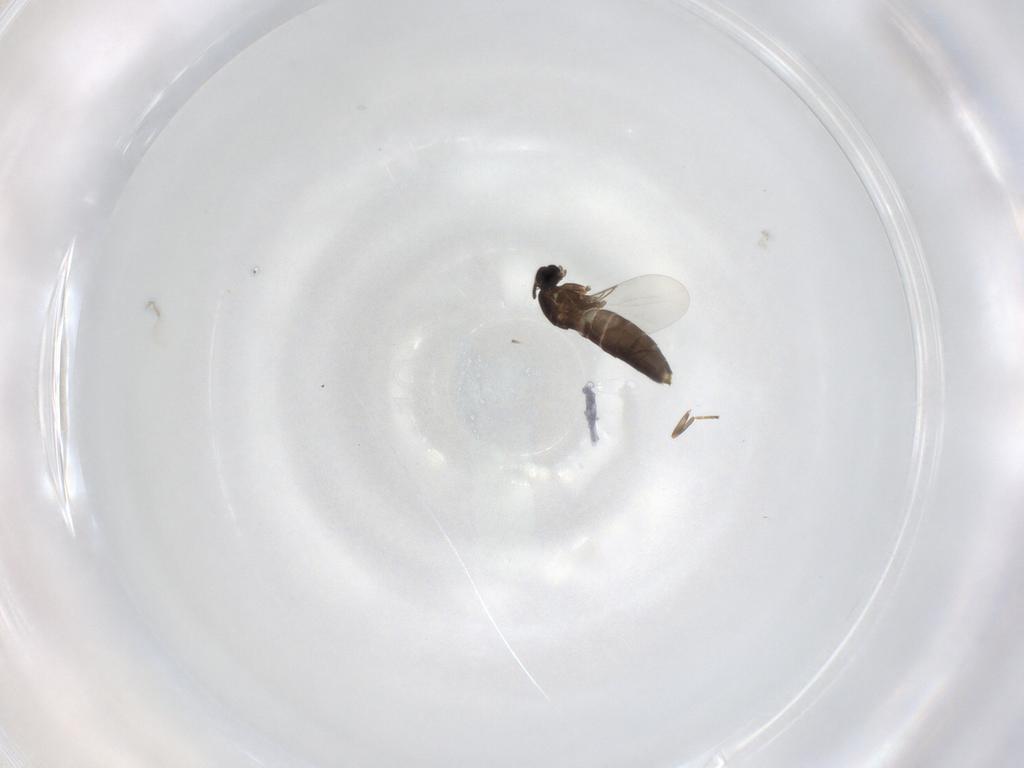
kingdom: Animalia
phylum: Arthropoda
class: Insecta
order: Diptera
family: Scatopsidae
